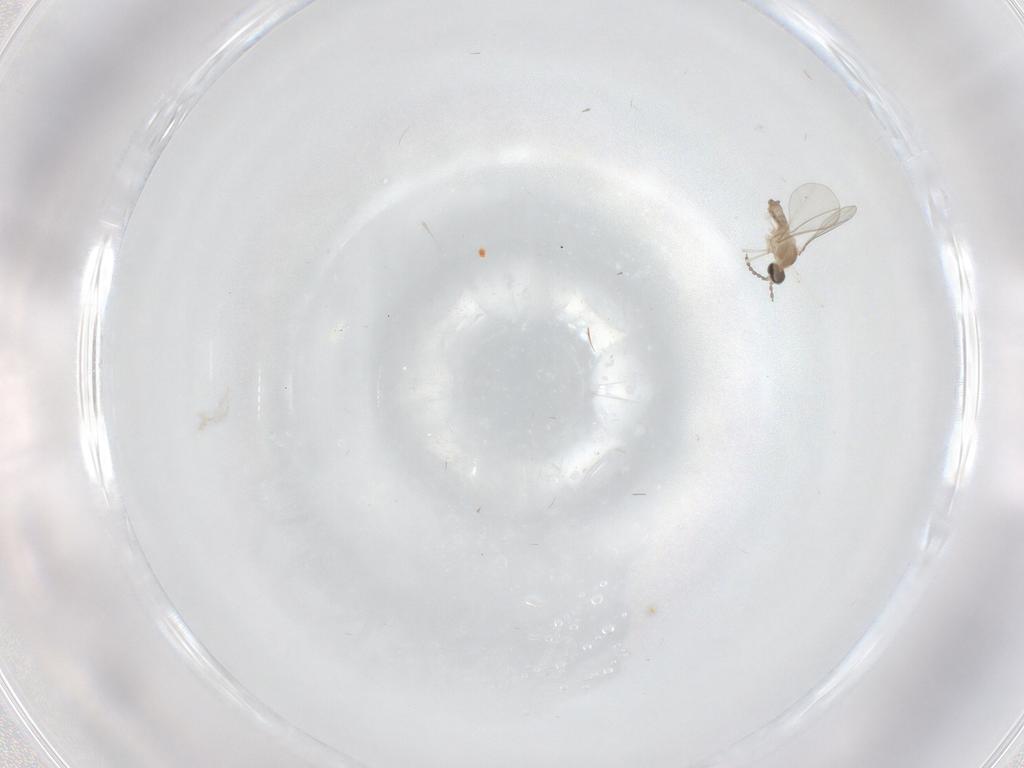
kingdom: Animalia
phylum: Arthropoda
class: Insecta
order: Diptera
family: Cecidomyiidae
